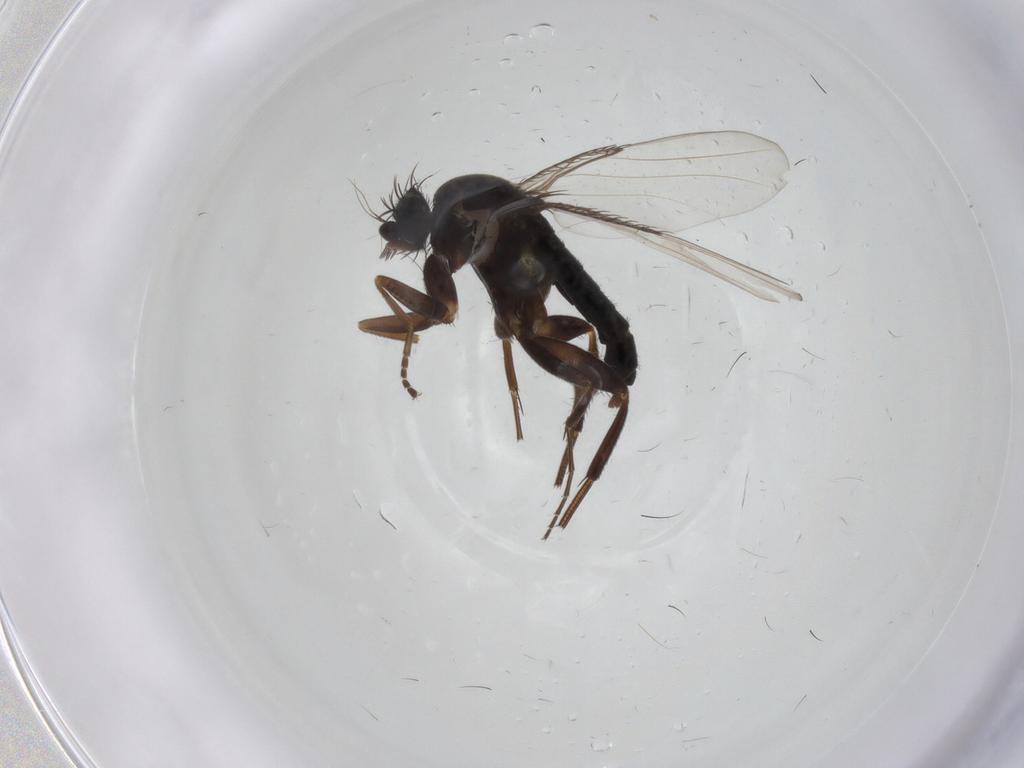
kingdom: Animalia
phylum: Arthropoda
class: Insecta
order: Diptera
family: Phoridae
